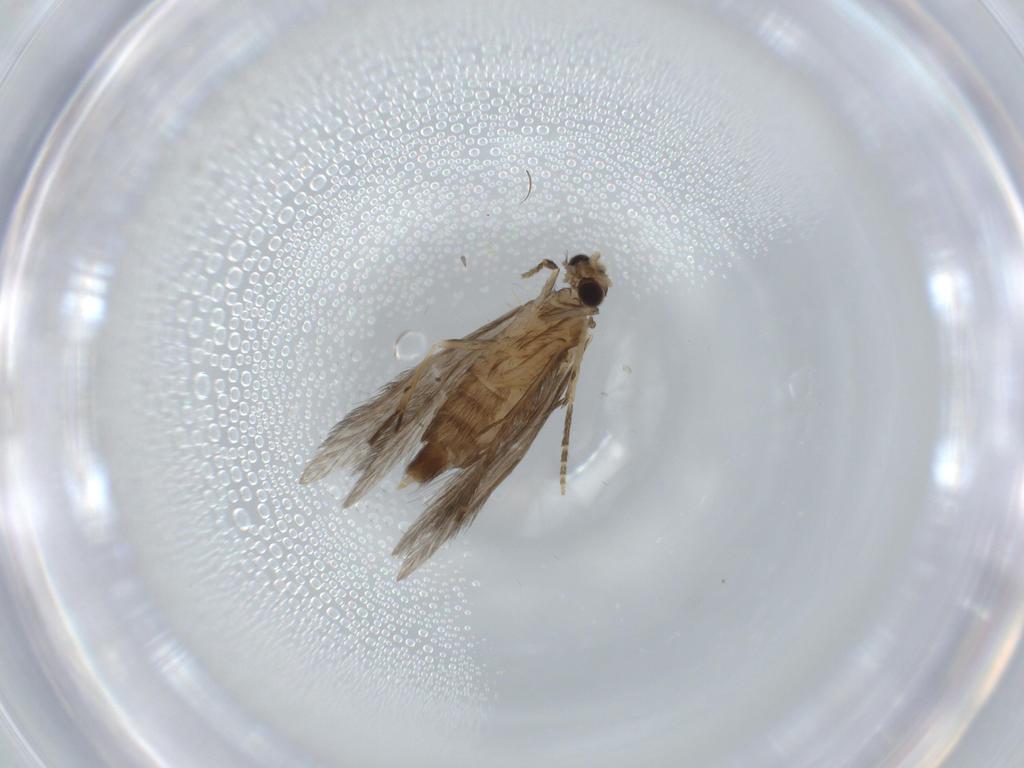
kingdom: Animalia
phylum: Arthropoda
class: Insecta
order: Trichoptera
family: Hydroptilidae
